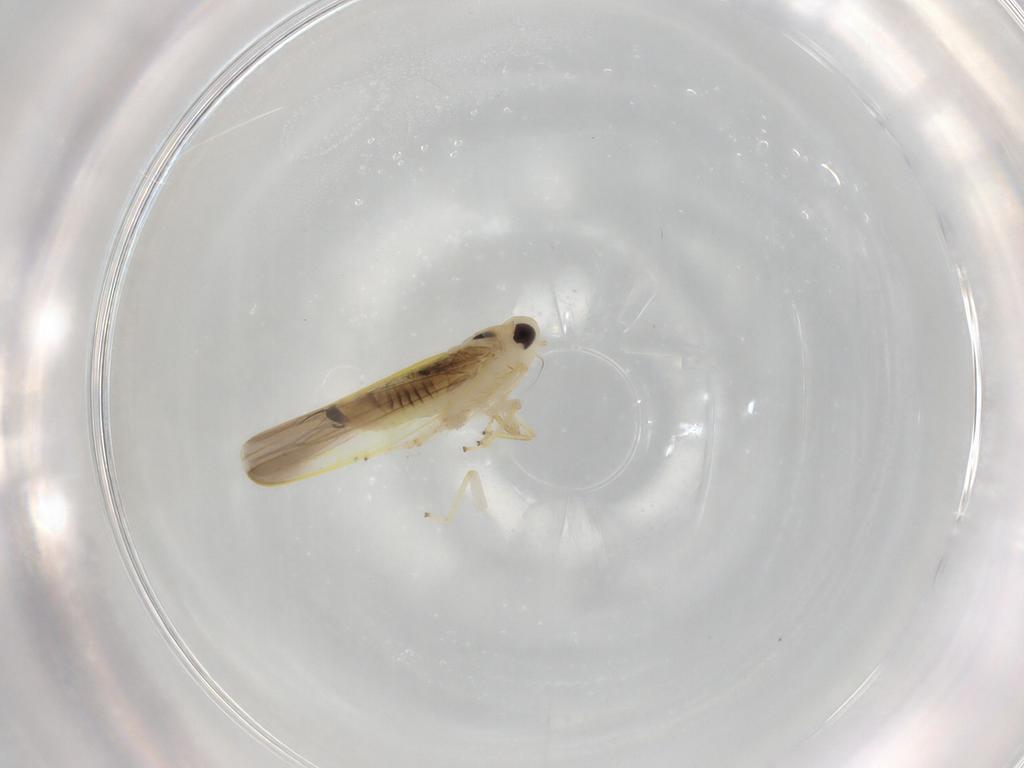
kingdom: Animalia
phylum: Arthropoda
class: Insecta
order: Hemiptera
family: Cicadellidae
